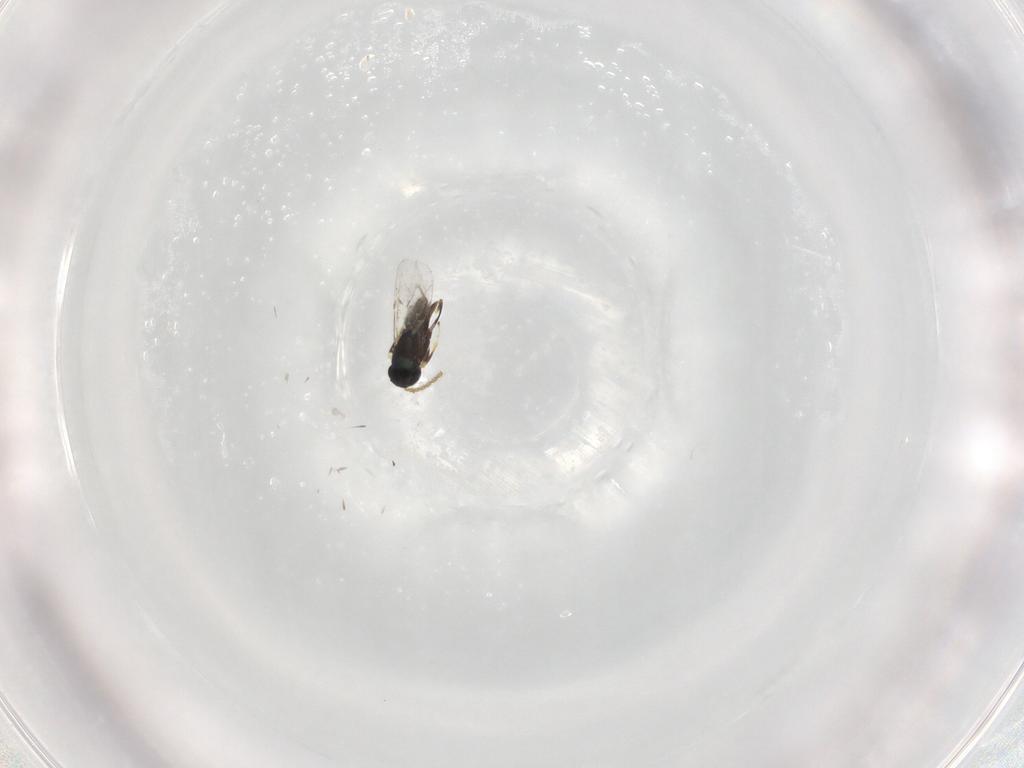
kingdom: Animalia
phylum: Arthropoda
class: Insecta
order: Hymenoptera
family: Encyrtidae
